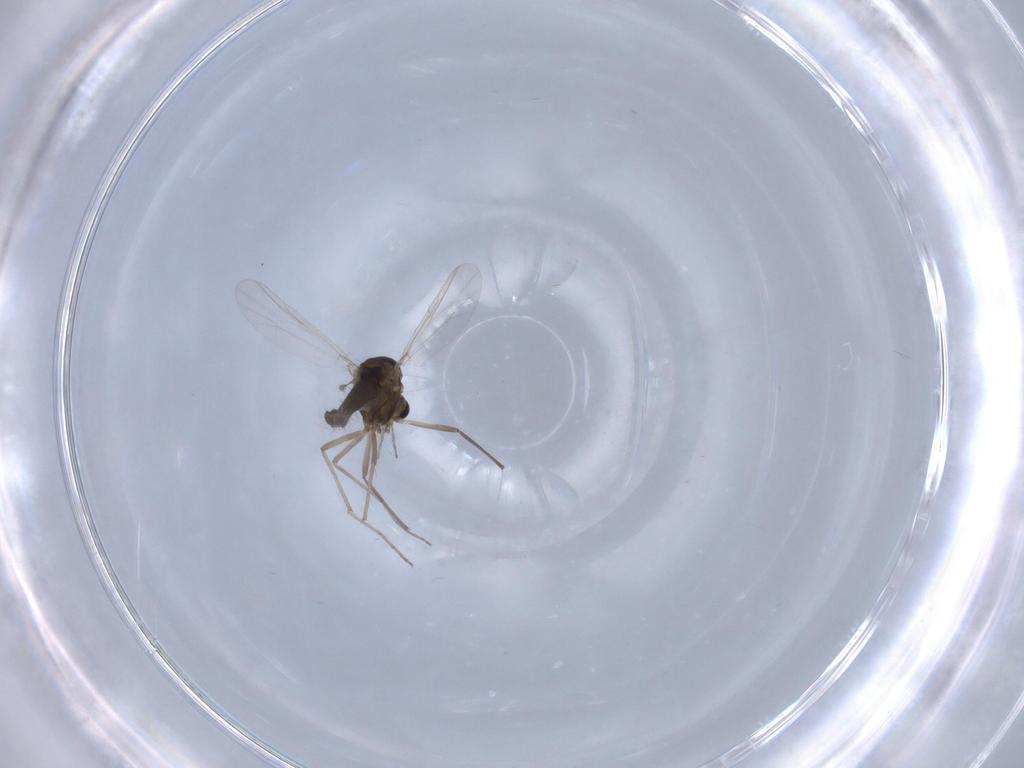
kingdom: Animalia
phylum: Arthropoda
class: Insecta
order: Diptera
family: Chironomidae
